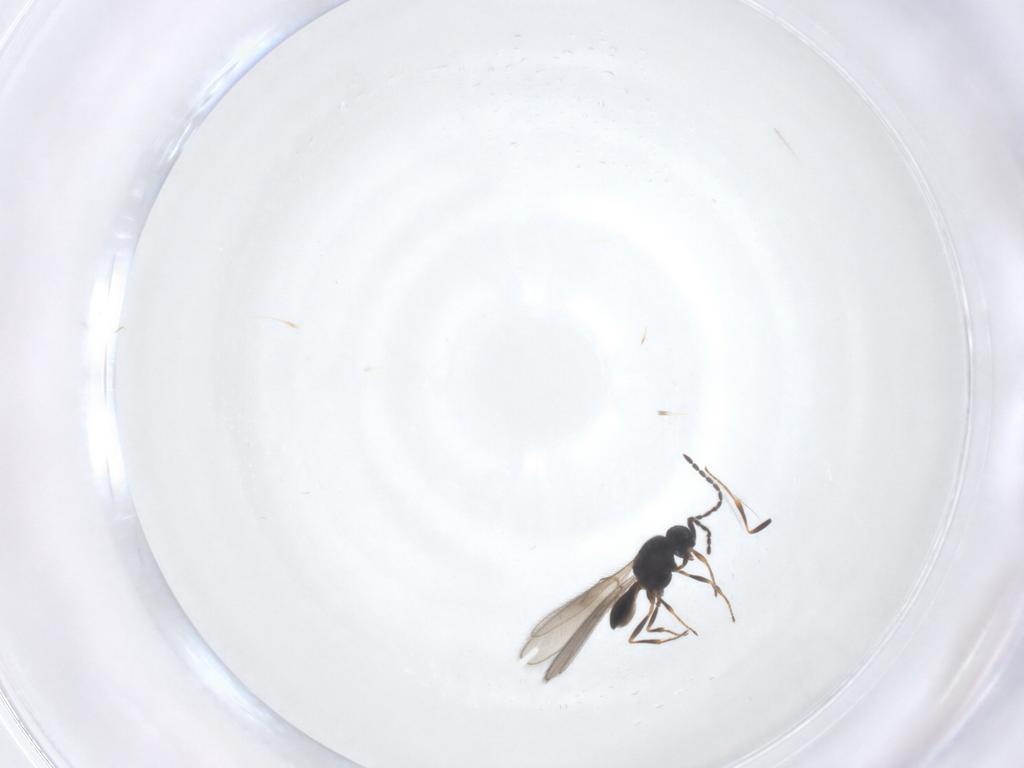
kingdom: Animalia
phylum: Arthropoda
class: Insecta
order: Hymenoptera
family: Scelionidae
